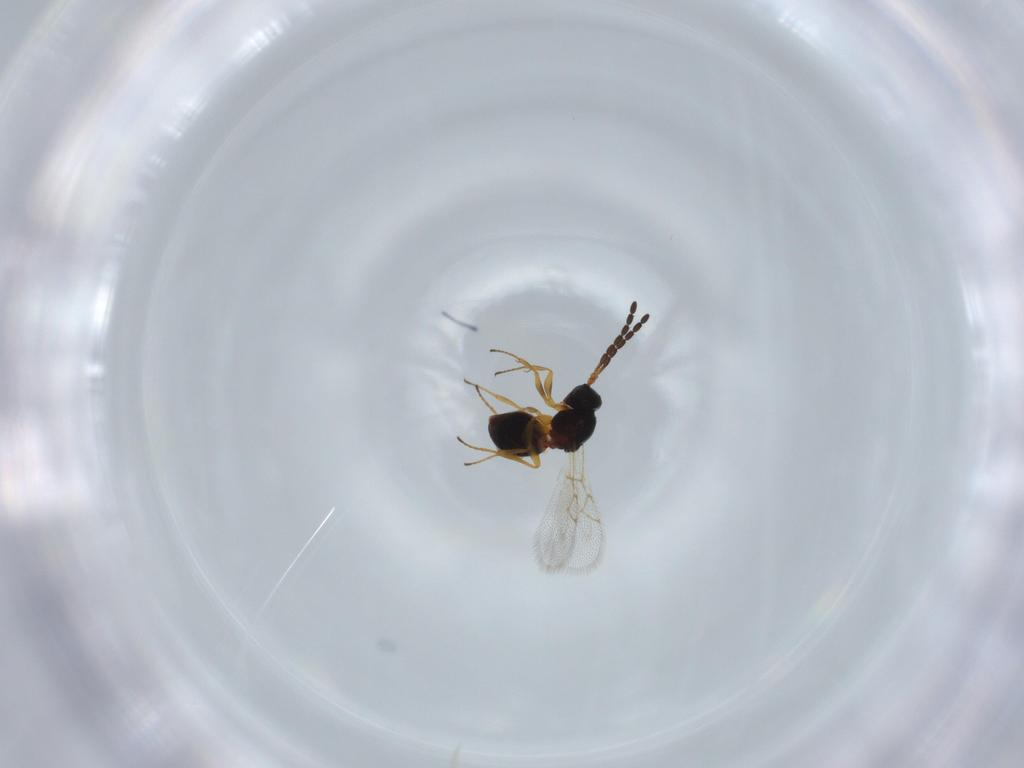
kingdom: Animalia
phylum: Arthropoda
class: Insecta
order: Hymenoptera
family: Figitidae
